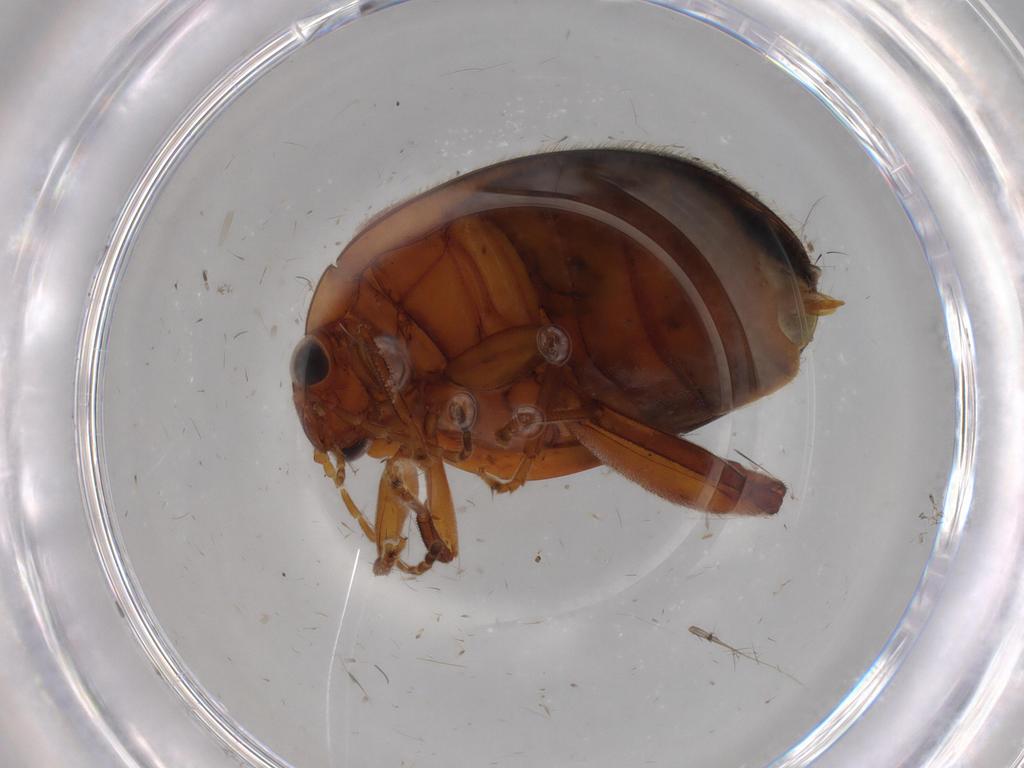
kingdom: Animalia
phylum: Arthropoda
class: Insecta
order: Coleoptera
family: Scirtidae
